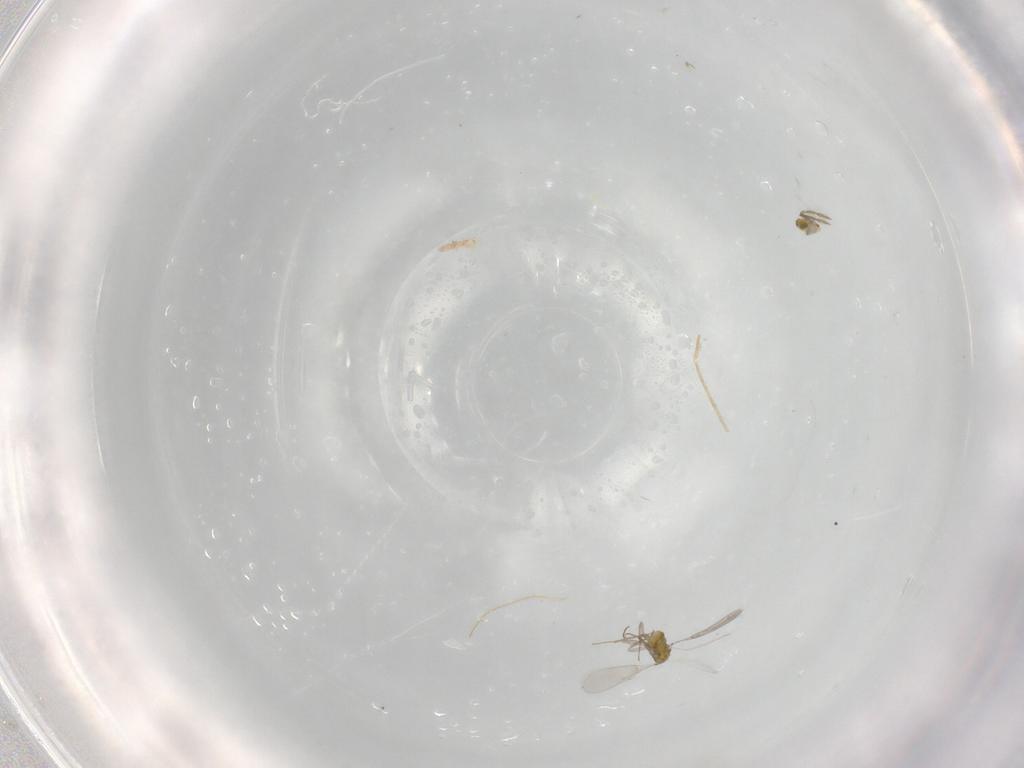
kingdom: Animalia
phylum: Arthropoda
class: Insecta
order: Hymenoptera
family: Aphelinidae
